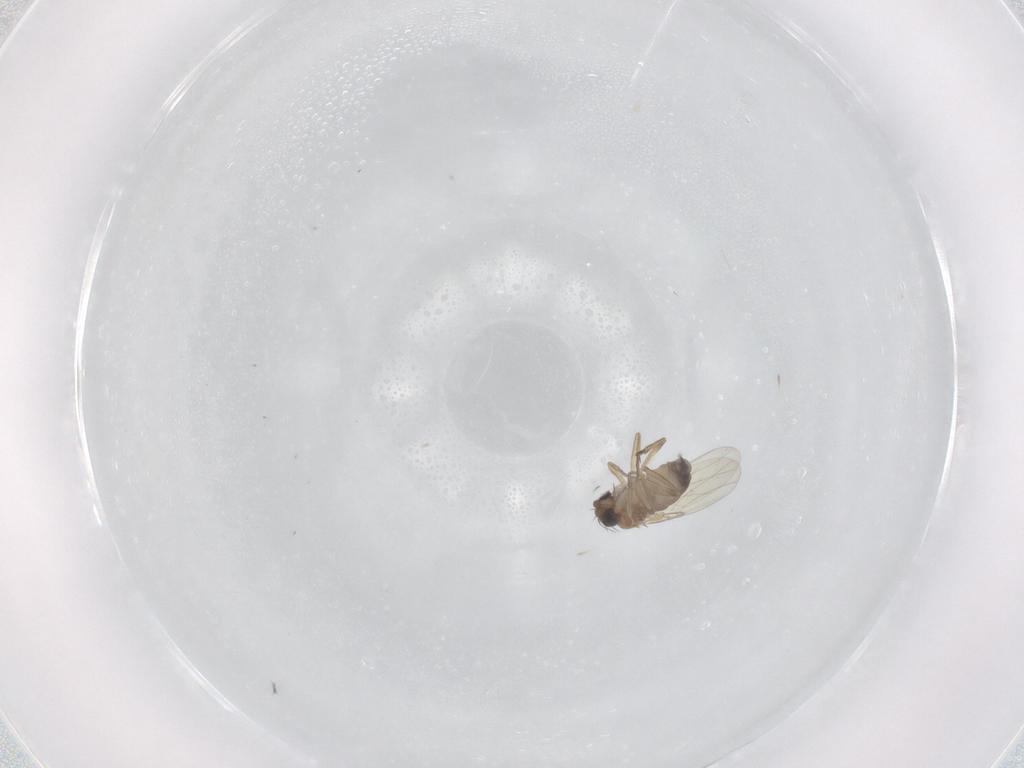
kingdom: Animalia
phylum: Arthropoda
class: Insecta
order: Diptera
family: Phoridae
